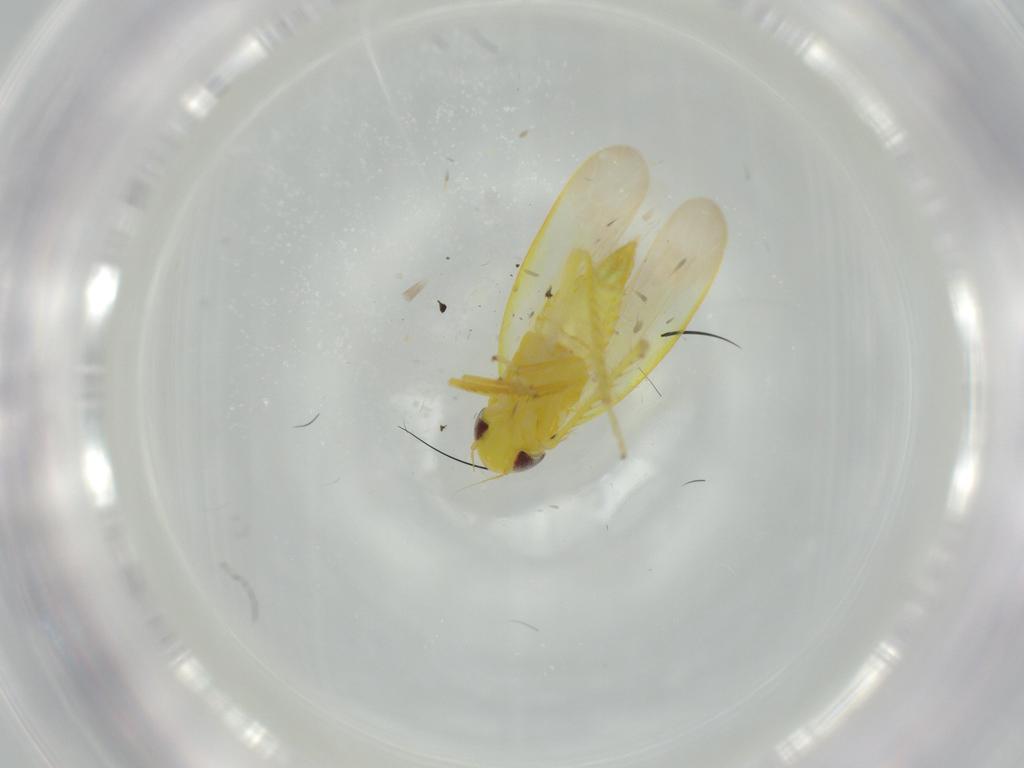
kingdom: Animalia
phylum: Arthropoda
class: Insecta
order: Hemiptera
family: Cicadellidae
